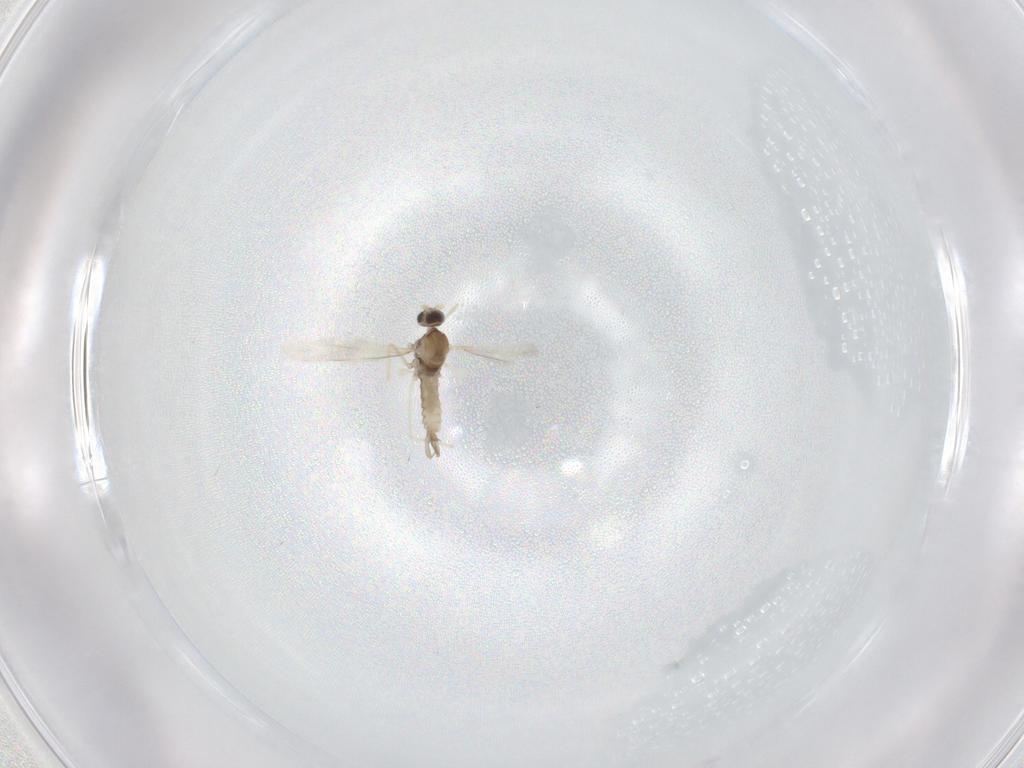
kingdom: Animalia
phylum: Arthropoda
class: Insecta
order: Diptera
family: Cecidomyiidae
